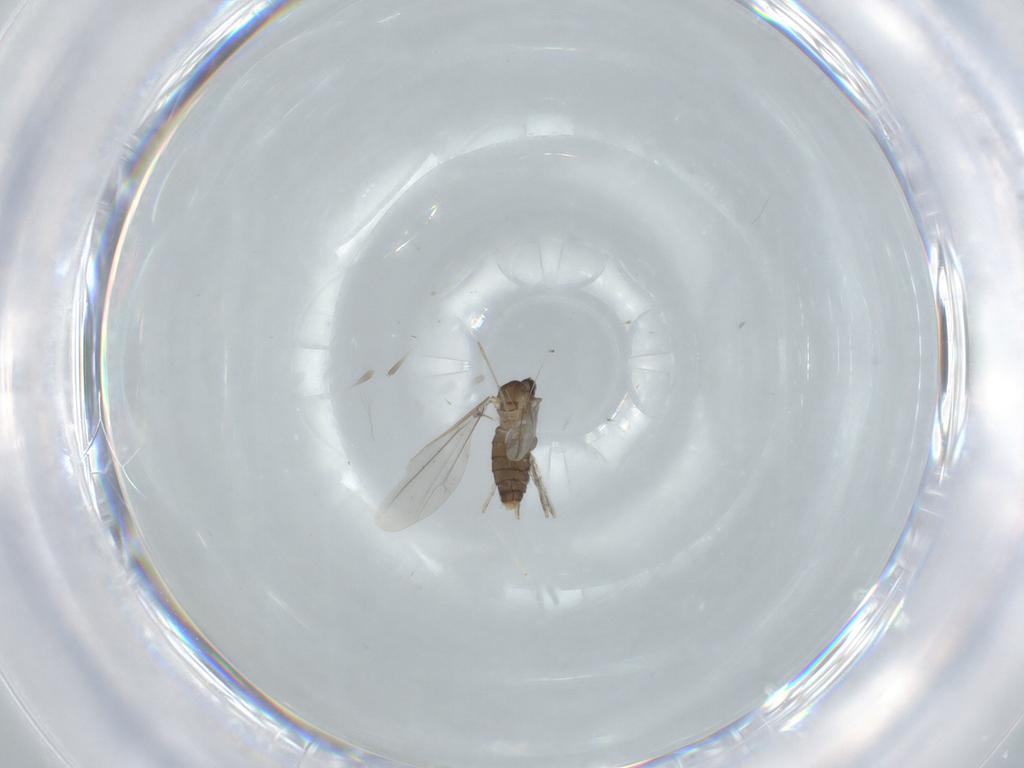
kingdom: Animalia
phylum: Arthropoda
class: Insecta
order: Diptera
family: Cecidomyiidae
